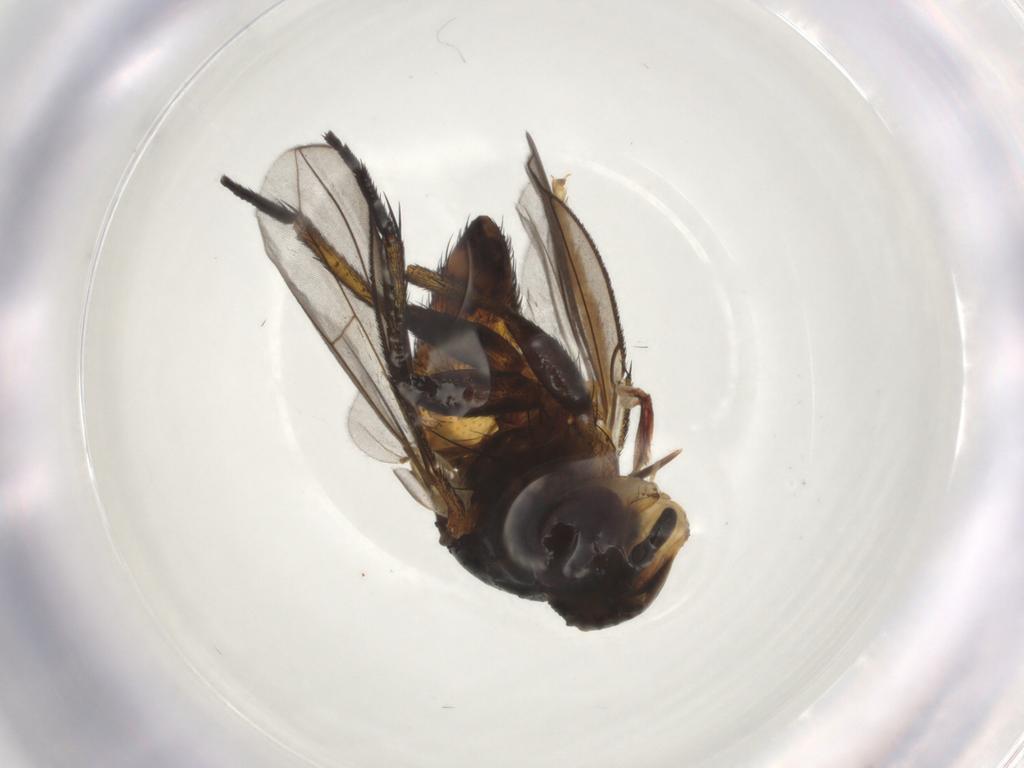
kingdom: Animalia
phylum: Arthropoda
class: Insecta
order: Diptera
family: Tachinidae
